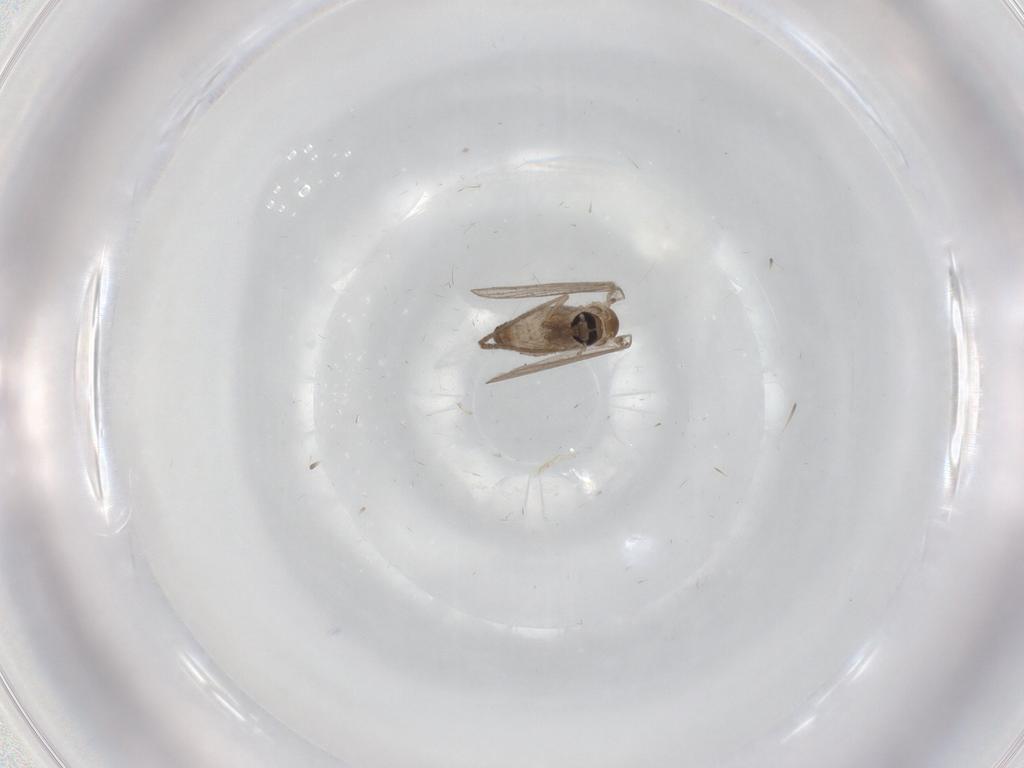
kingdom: Animalia
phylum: Arthropoda
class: Insecta
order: Diptera
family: Psychodidae
